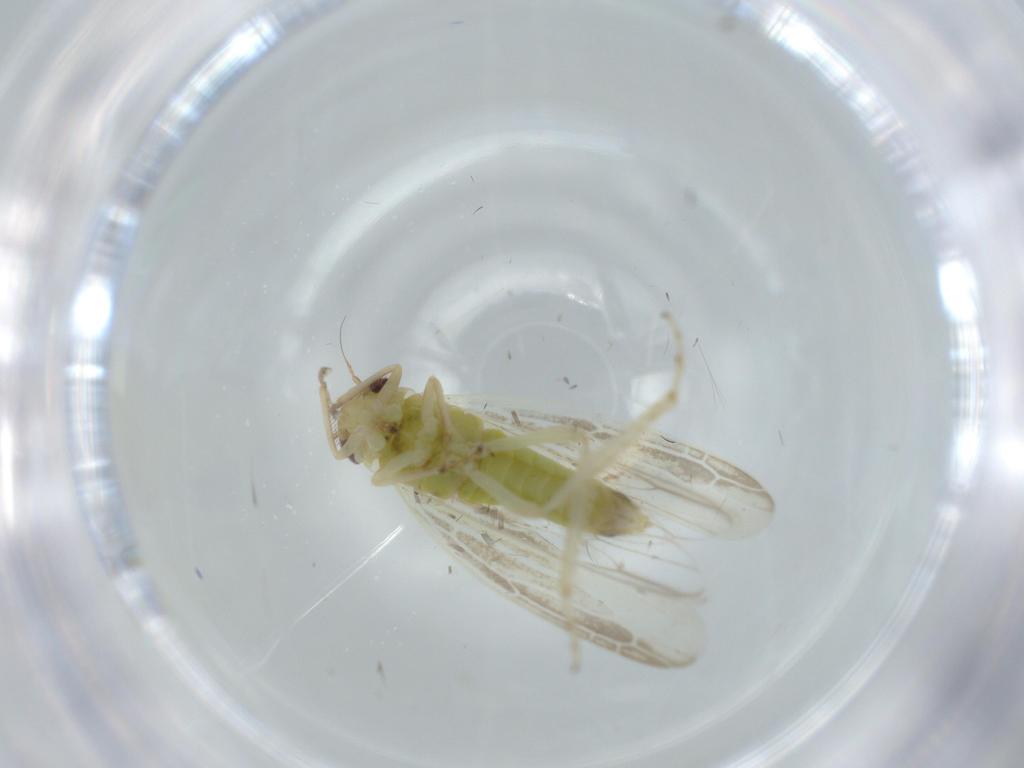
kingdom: Animalia
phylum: Arthropoda
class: Insecta
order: Hemiptera
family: Cicadellidae
